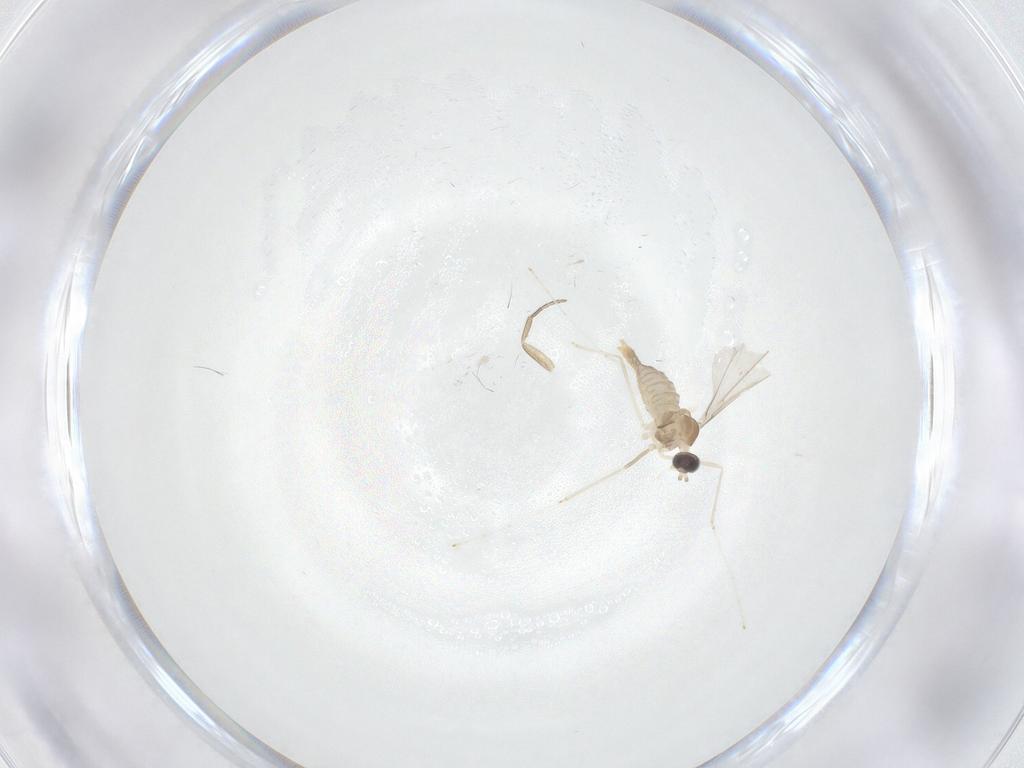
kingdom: Animalia
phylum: Arthropoda
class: Insecta
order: Diptera
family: Cecidomyiidae
